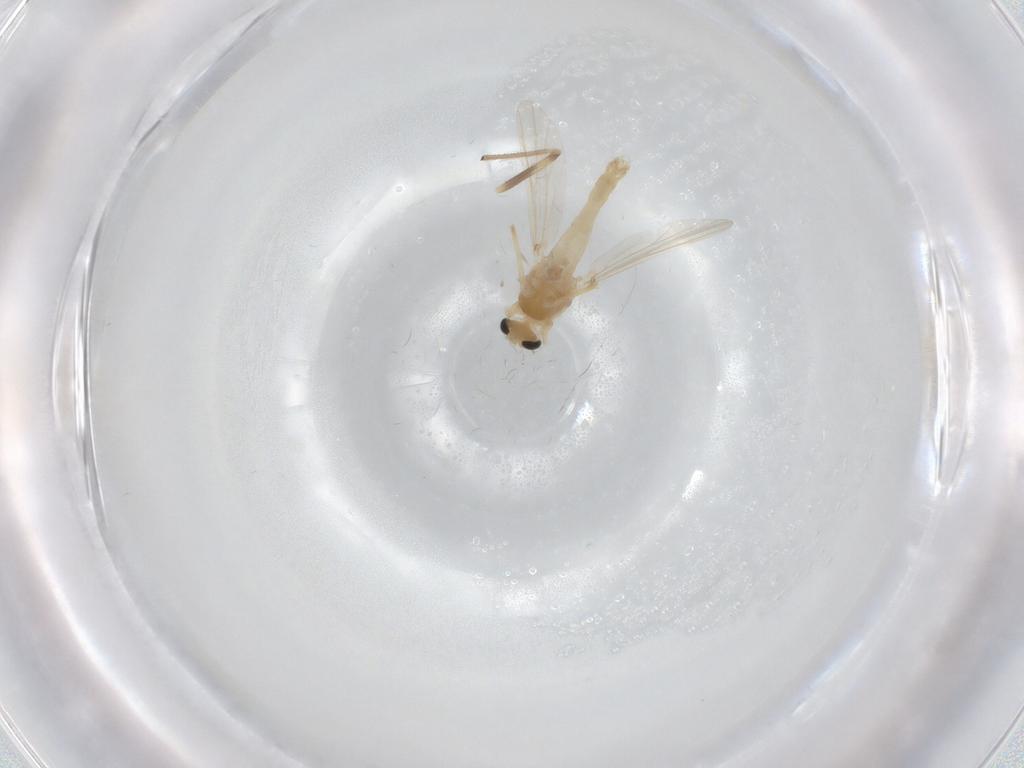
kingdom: Animalia
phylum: Arthropoda
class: Insecta
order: Diptera
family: Chironomidae
